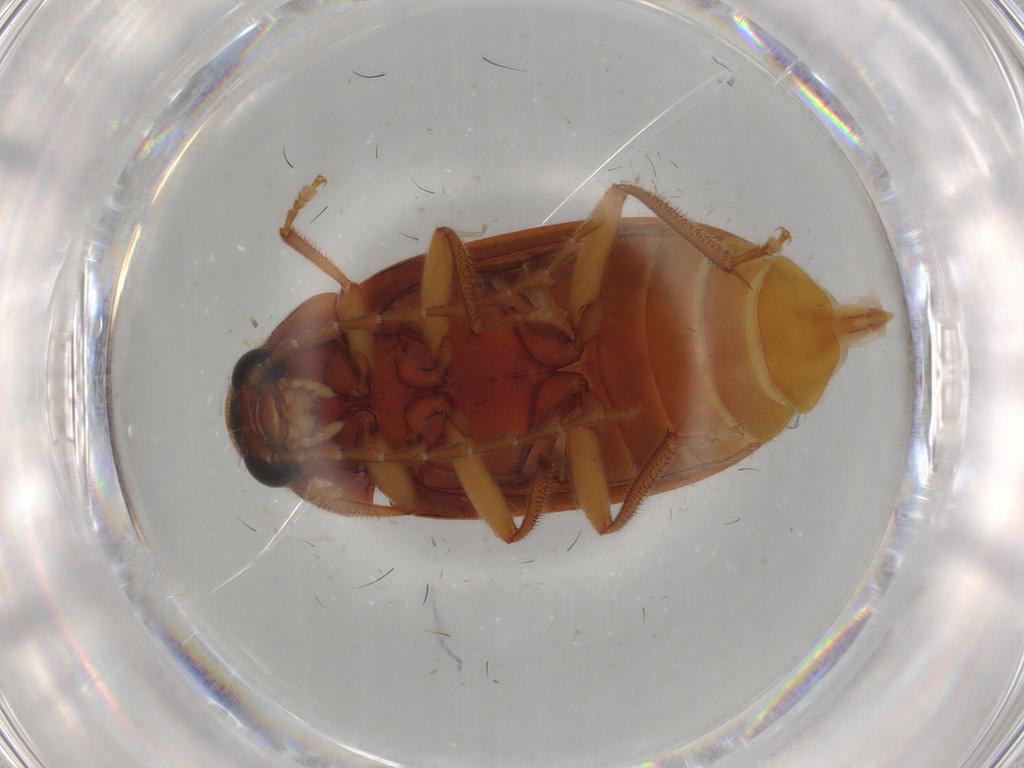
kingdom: Animalia
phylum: Arthropoda
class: Insecta
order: Coleoptera
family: Ptilodactylidae
